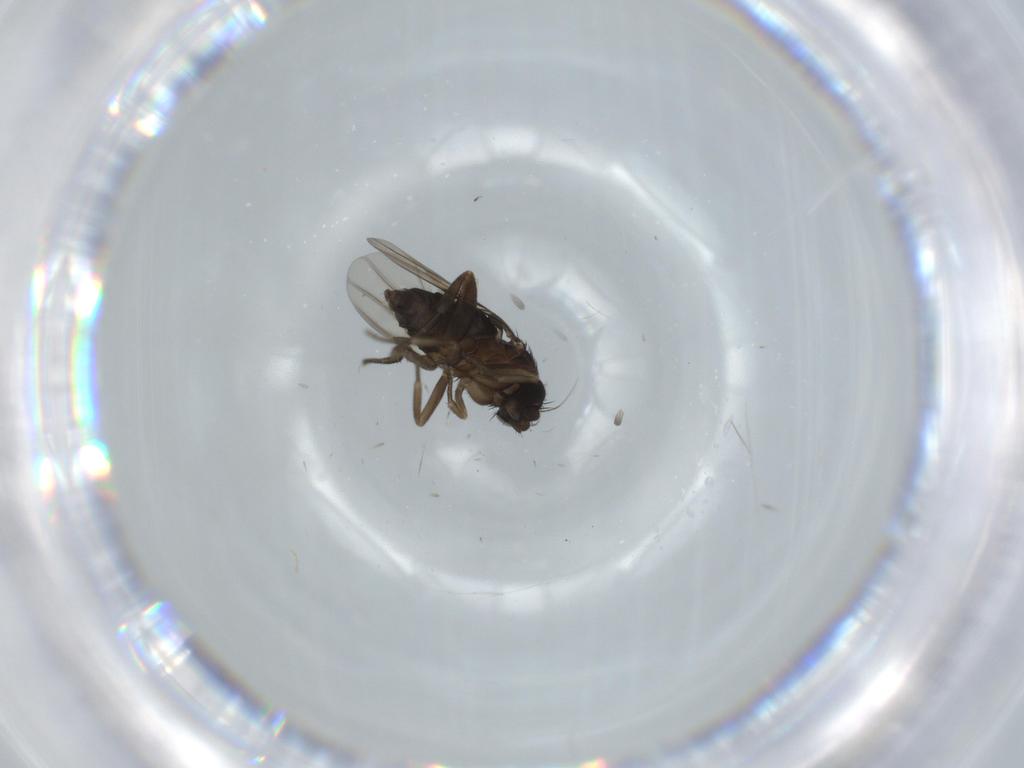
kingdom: Animalia
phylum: Arthropoda
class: Insecta
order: Diptera
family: Phoridae
